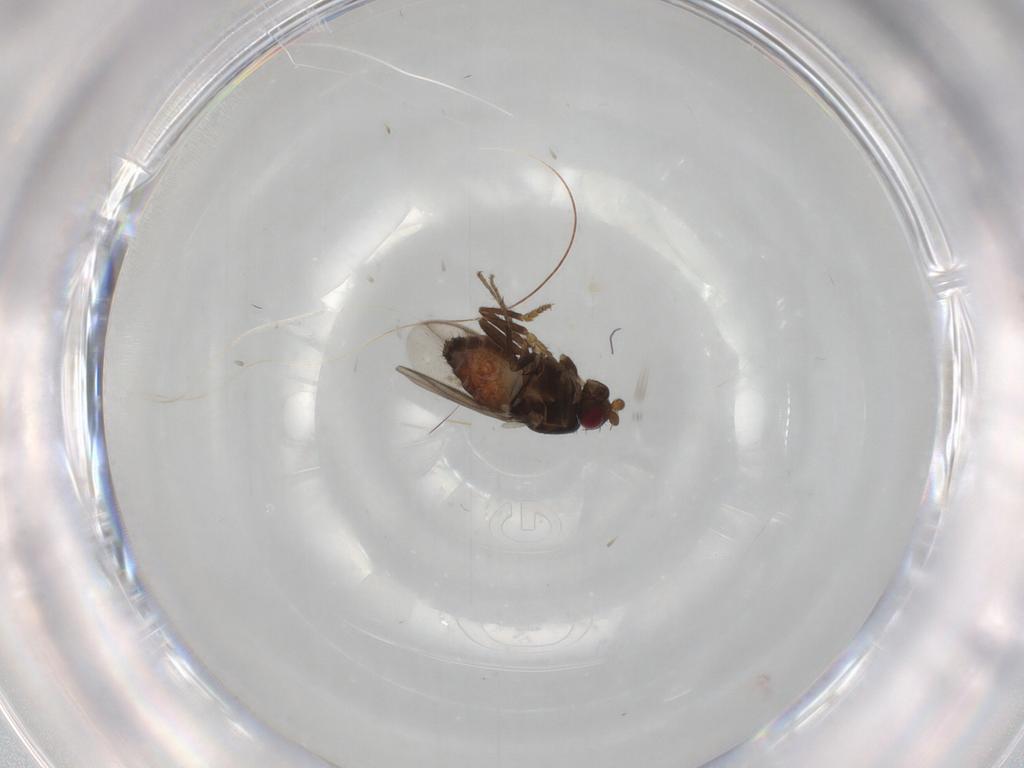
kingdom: Animalia
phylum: Arthropoda
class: Insecta
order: Diptera
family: Sphaeroceridae
